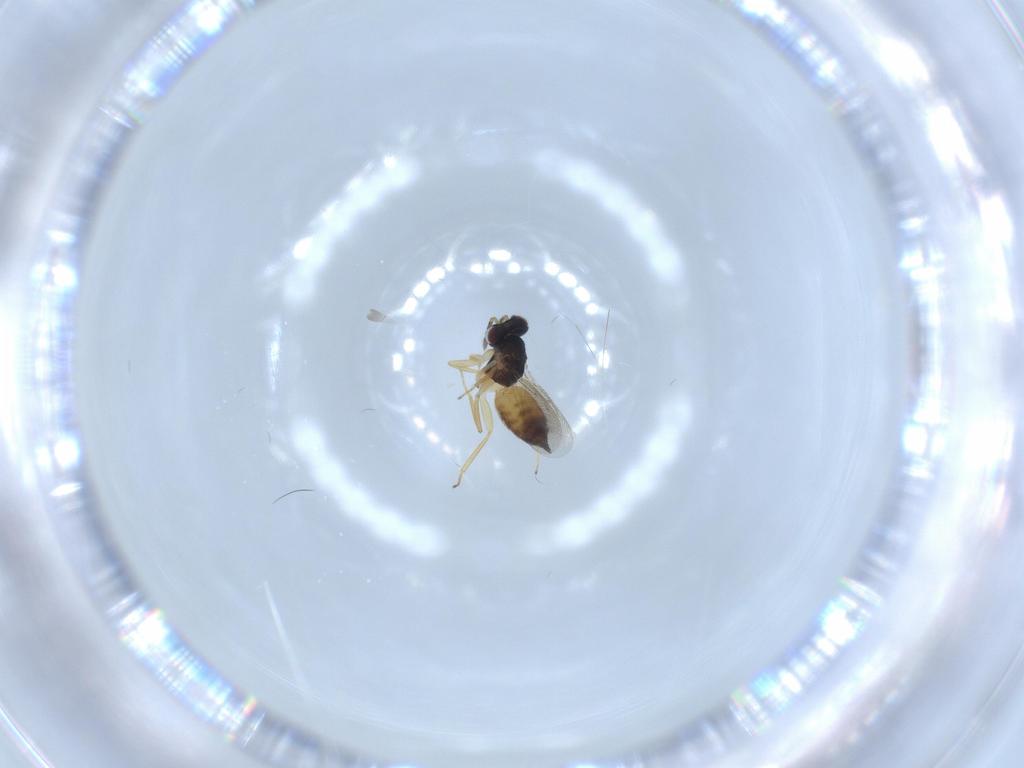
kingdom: Animalia
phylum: Arthropoda
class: Insecta
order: Hymenoptera
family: Eulophidae
